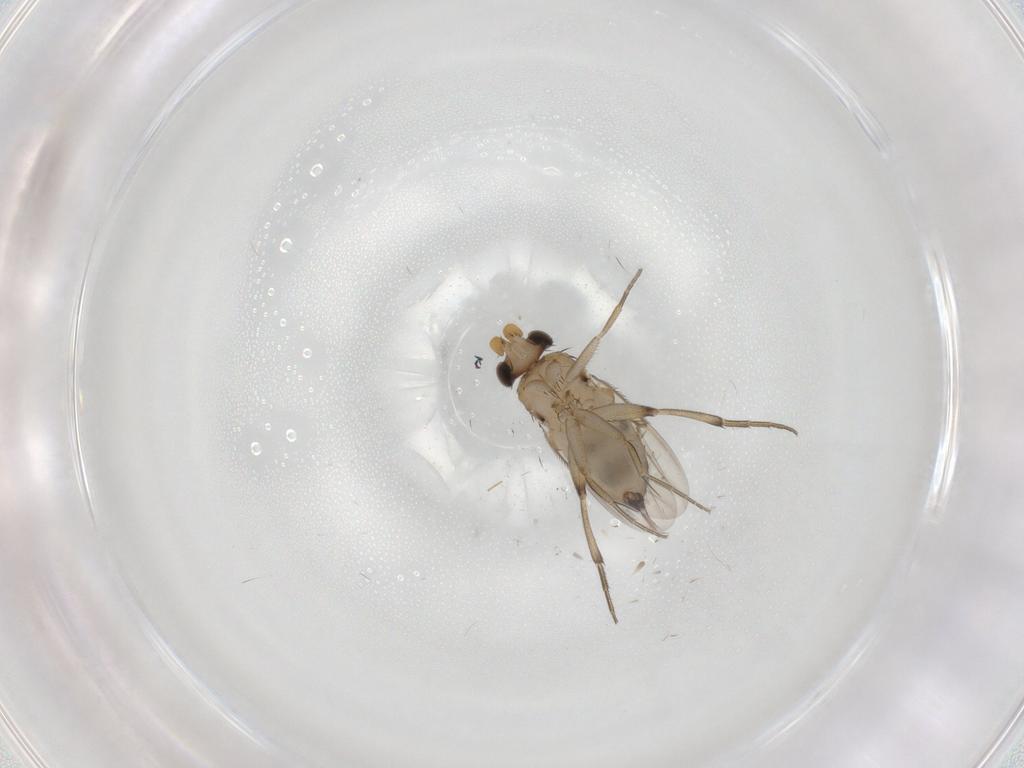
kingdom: Animalia
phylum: Arthropoda
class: Insecta
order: Diptera
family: Phoridae
